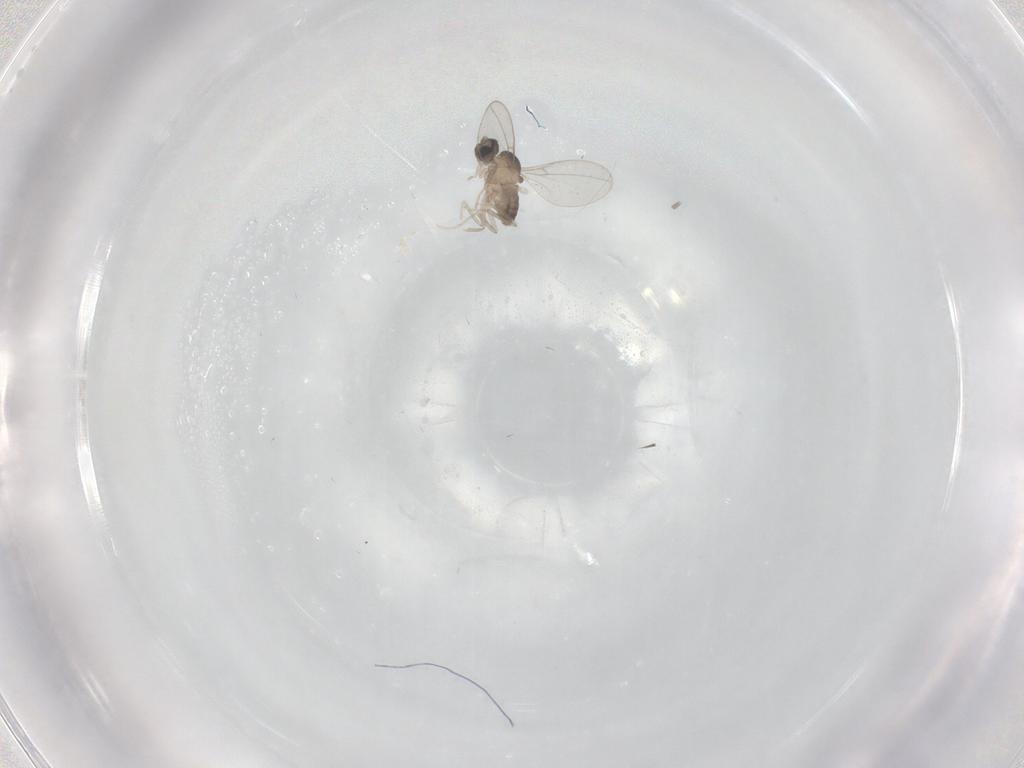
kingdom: Animalia
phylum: Arthropoda
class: Insecta
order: Diptera
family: Cecidomyiidae
